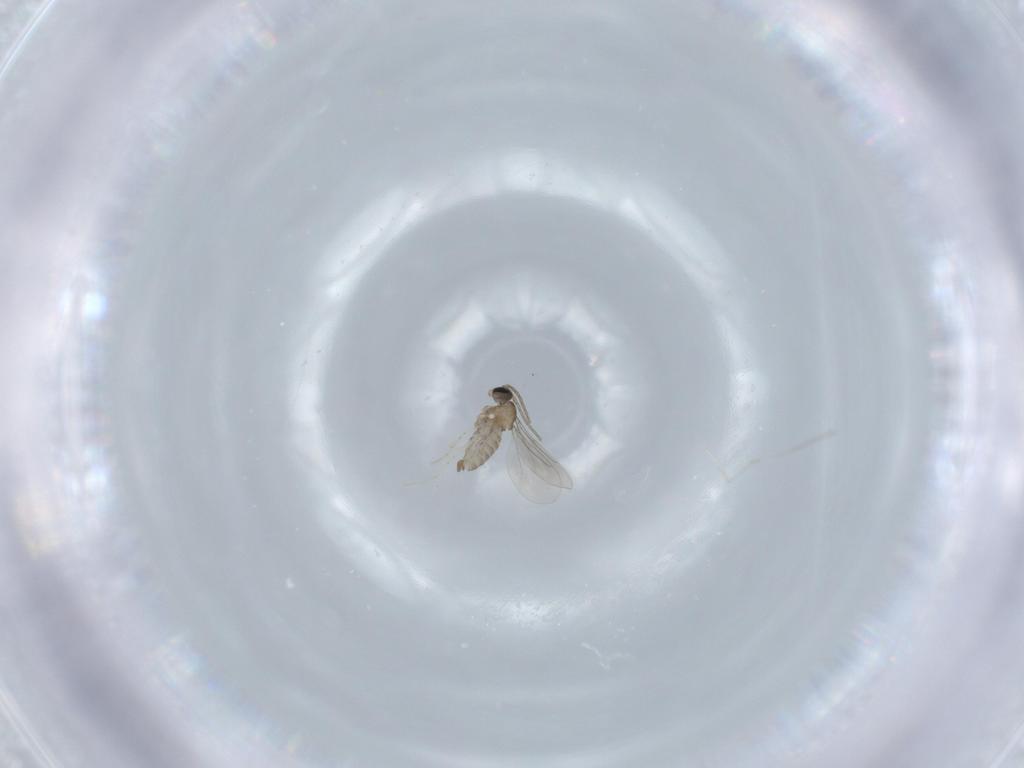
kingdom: Animalia
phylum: Arthropoda
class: Insecta
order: Diptera
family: Cecidomyiidae
